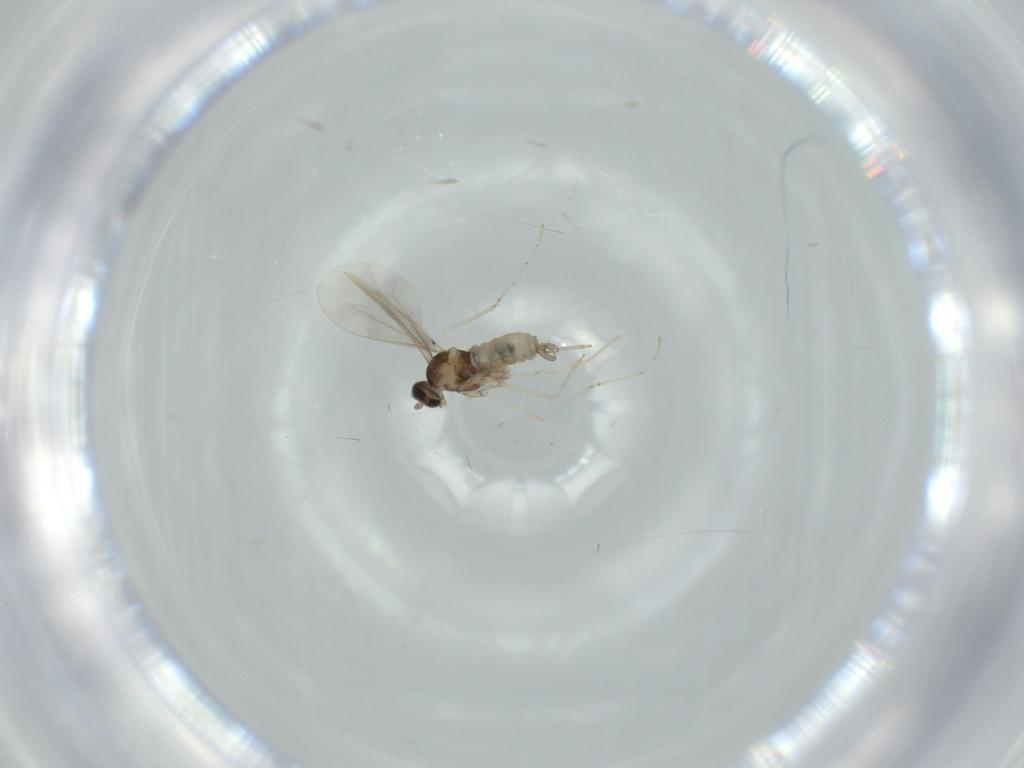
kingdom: Animalia
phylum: Arthropoda
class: Insecta
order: Diptera
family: Cecidomyiidae
